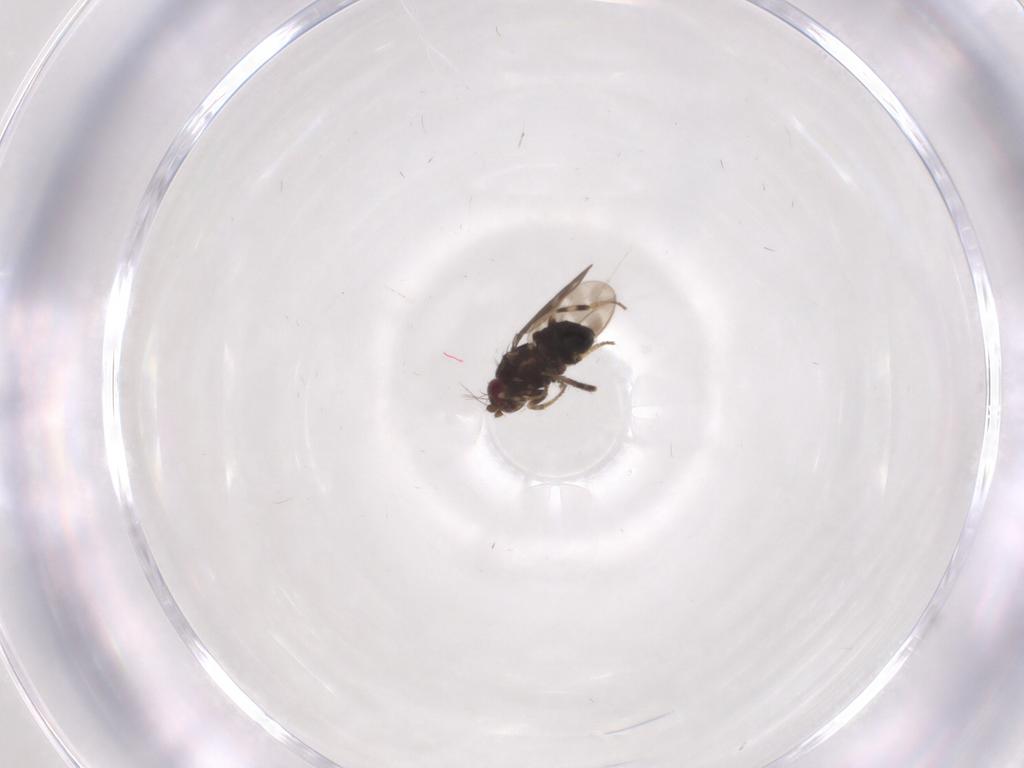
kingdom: Animalia
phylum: Arthropoda
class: Insecta
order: Diptera
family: Sphaeroceridae
